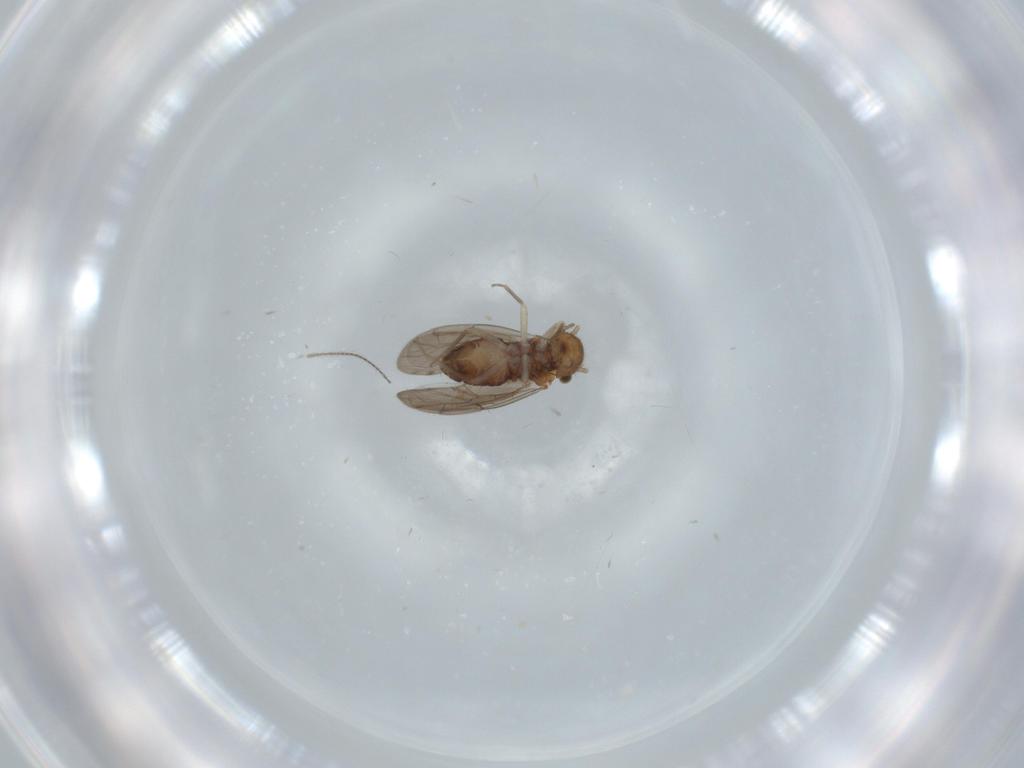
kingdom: Animalia
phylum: Arthropoda
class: Insecta
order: Psocodea
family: Ectopsocidae
